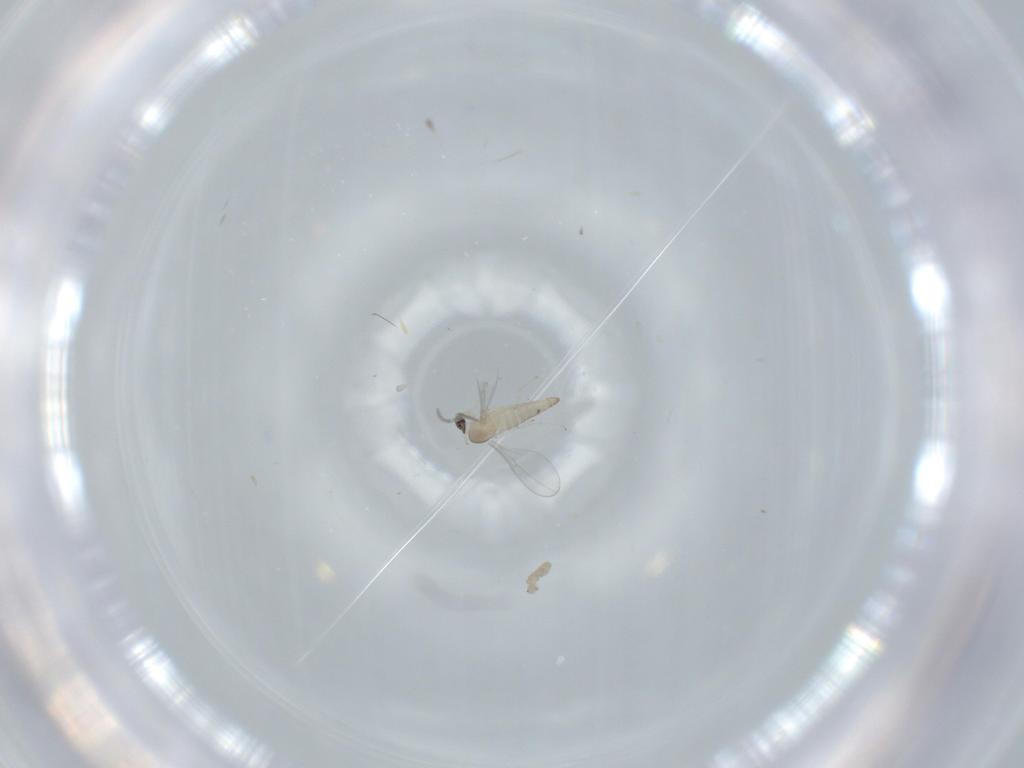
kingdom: Animalia
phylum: Arthropoda
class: Insecta
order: Diptera
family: Cecidomyiidae
